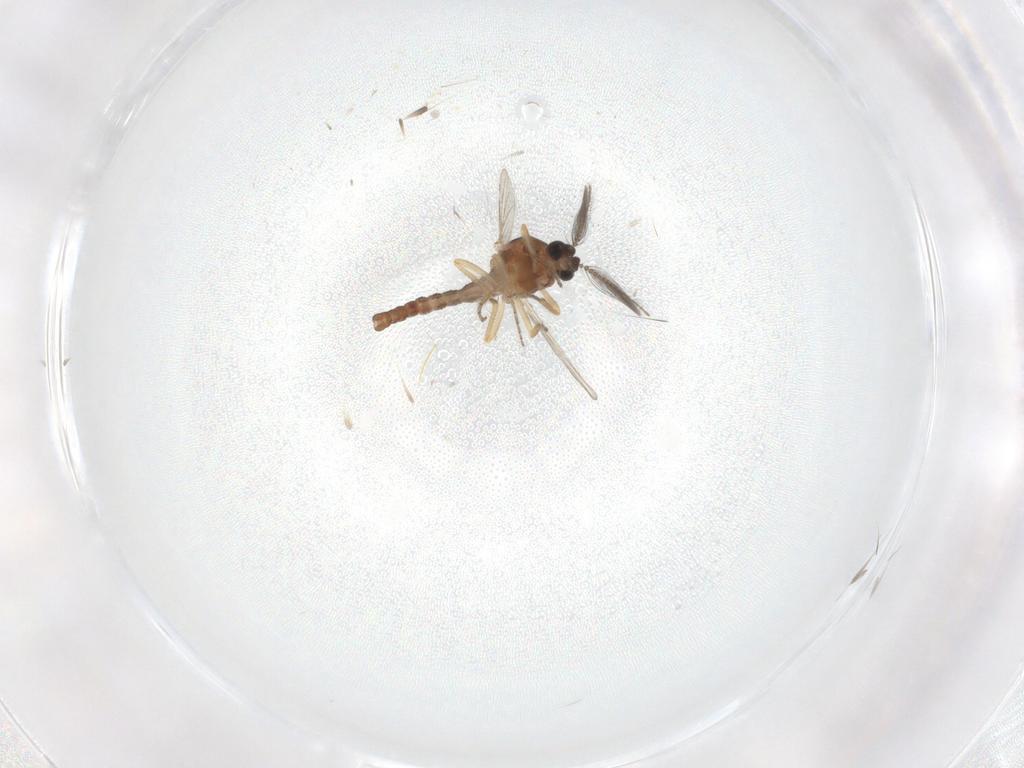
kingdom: Animalia
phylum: Arthropoda
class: Insecta
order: Diptera
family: Ceratopogonidae
